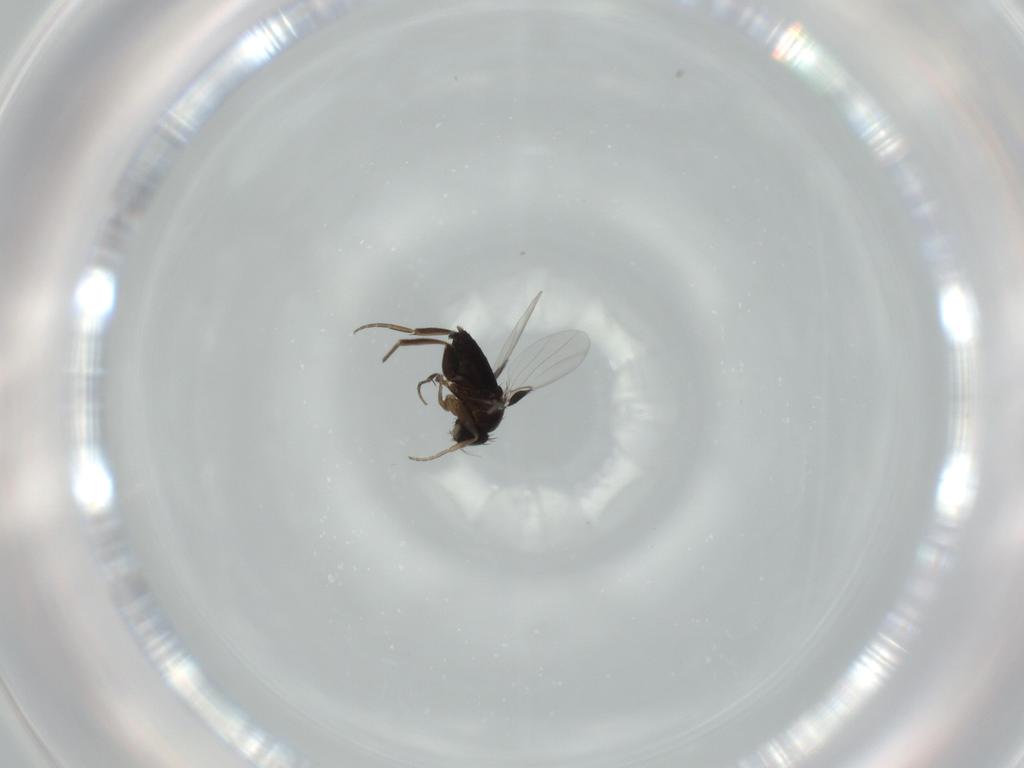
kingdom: Animalia
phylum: Arthropoda
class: Insecta
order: Diptera
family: Phoridae
